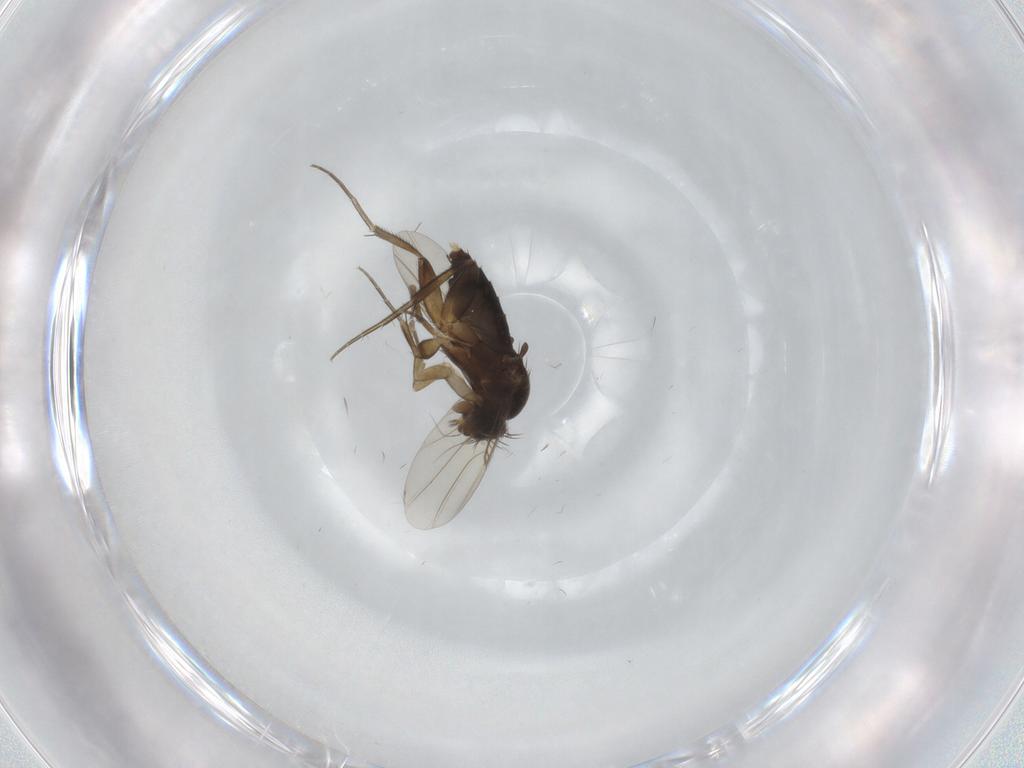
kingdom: Animalia
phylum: Arthropoda
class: Insecta
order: Diptera
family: Phoridae
